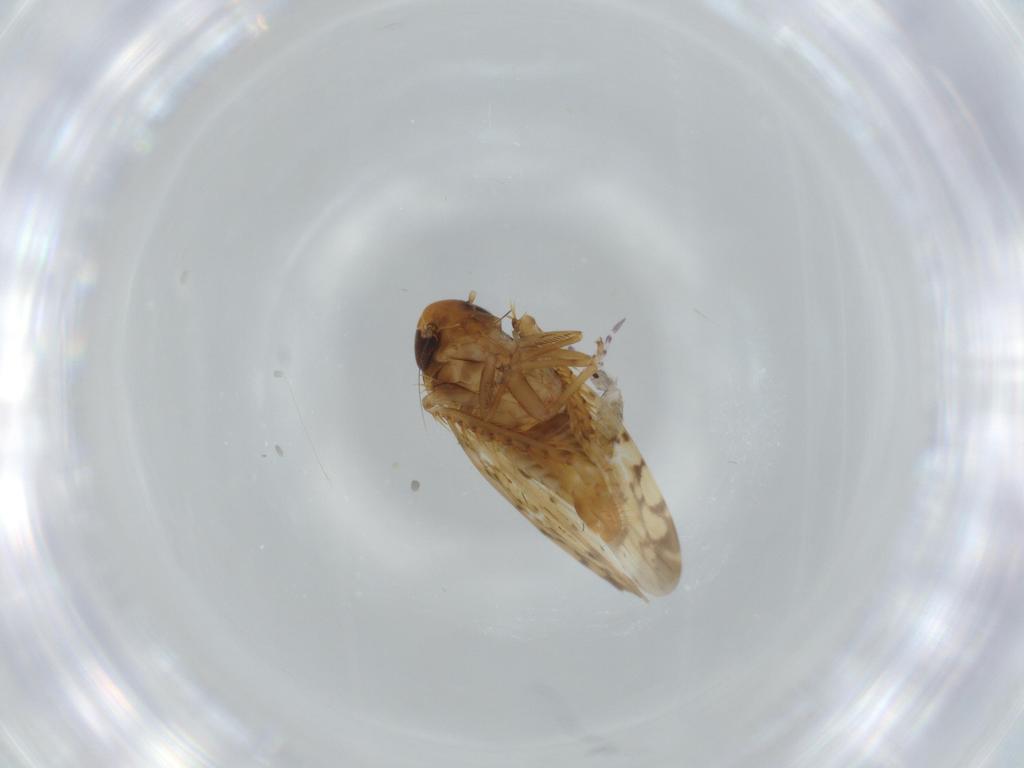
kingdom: Animalia
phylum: Arthropoda
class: Insecta
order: Hemiptera
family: Cicadellidae
